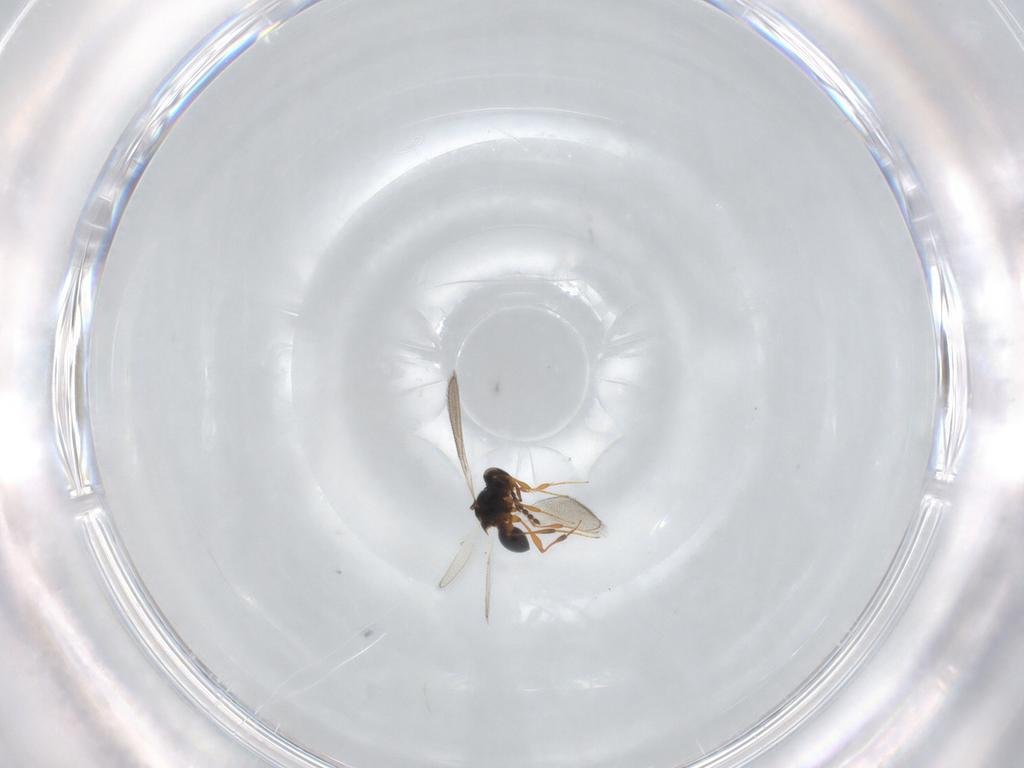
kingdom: Animalia
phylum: Arthropoda
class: Insecta
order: Hymenoptera
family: Platygastridae
